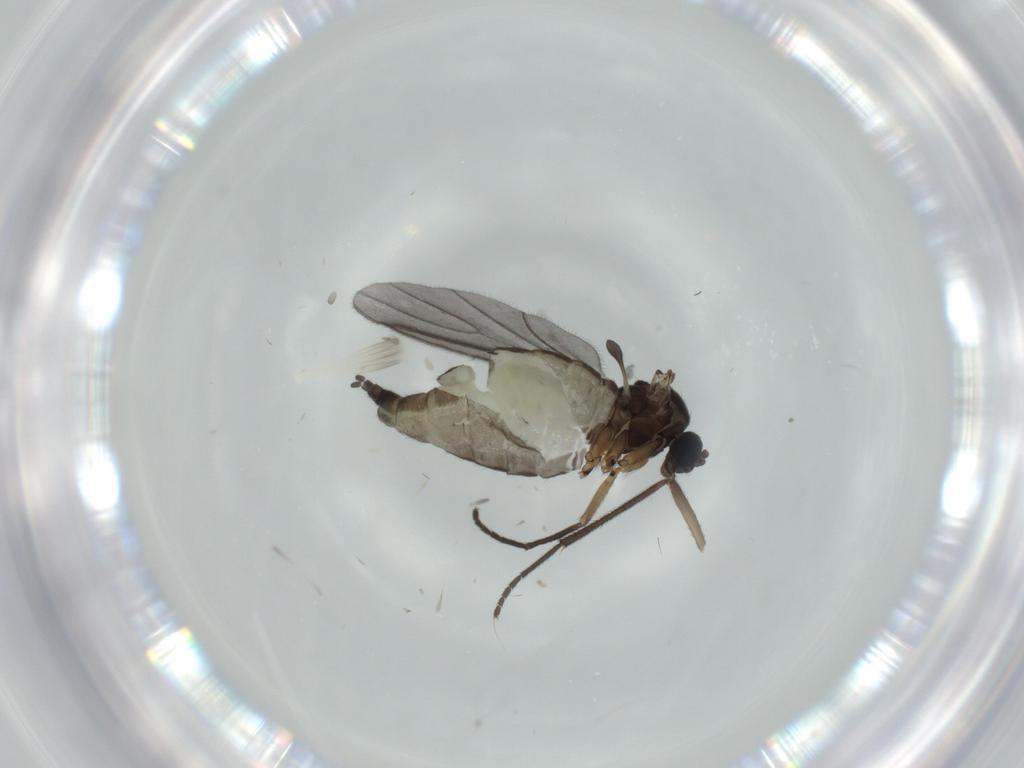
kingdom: Animalia
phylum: Arthropoda
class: Insecta
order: Diptera
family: Sciaridae
